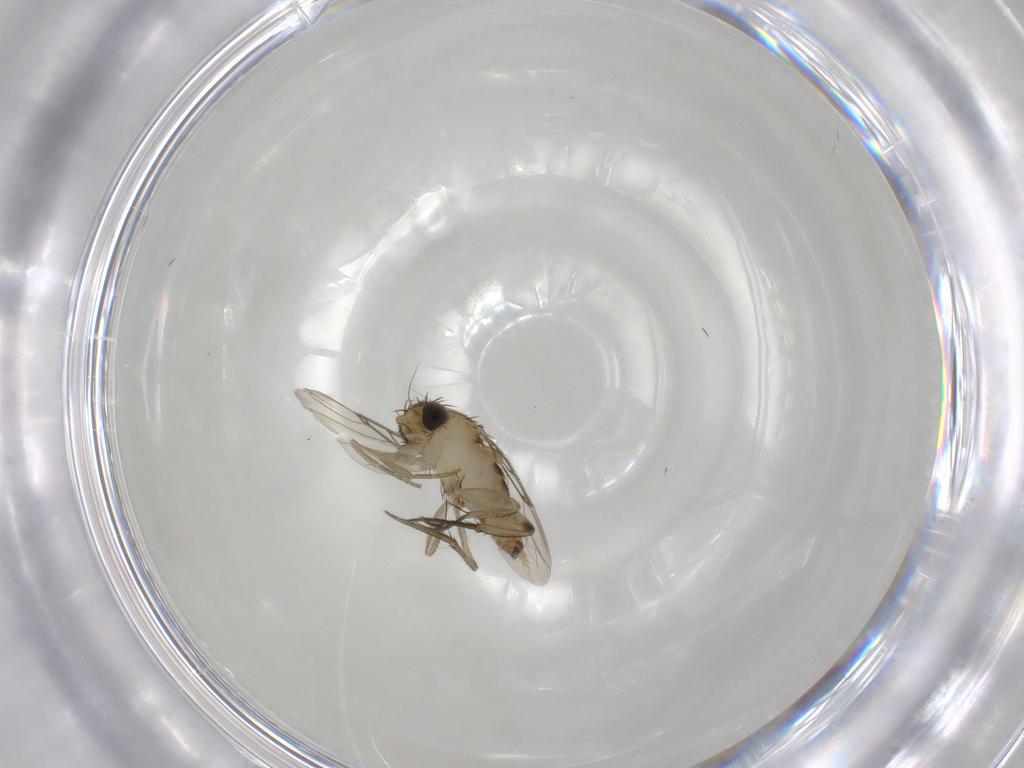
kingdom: Animalia
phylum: Arthropoda
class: Insecta
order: Diptera
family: Phoridae
